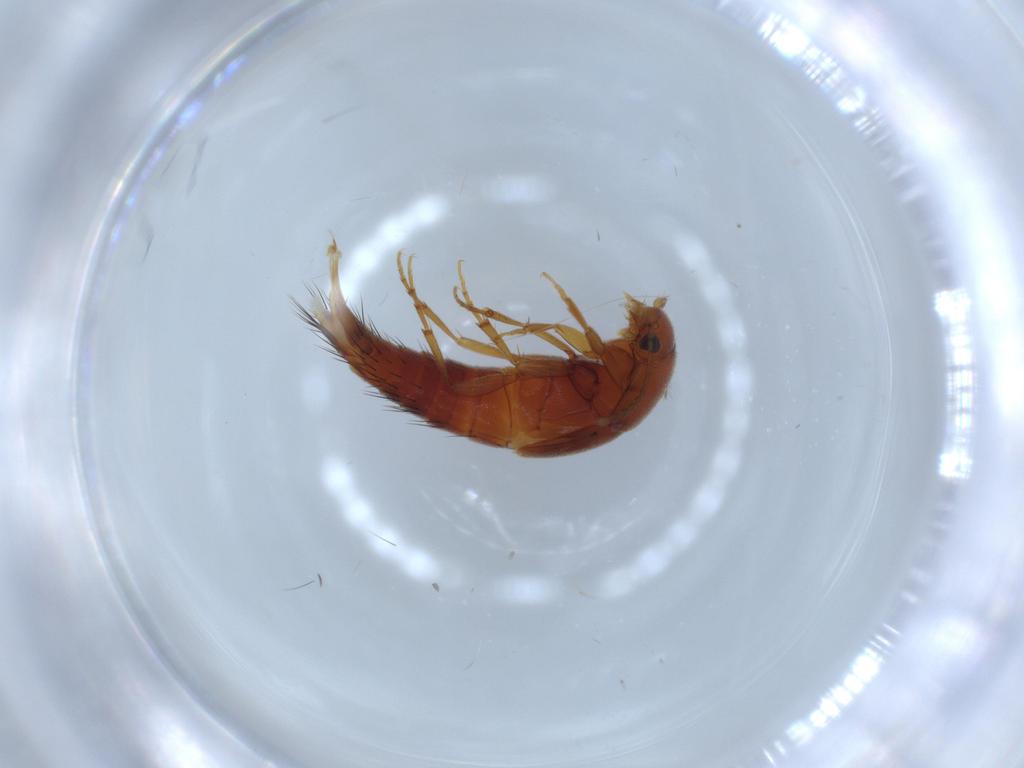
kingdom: Animalia
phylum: Arthropoda
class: Insecta
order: Coleoptera
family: Staphylinidae
